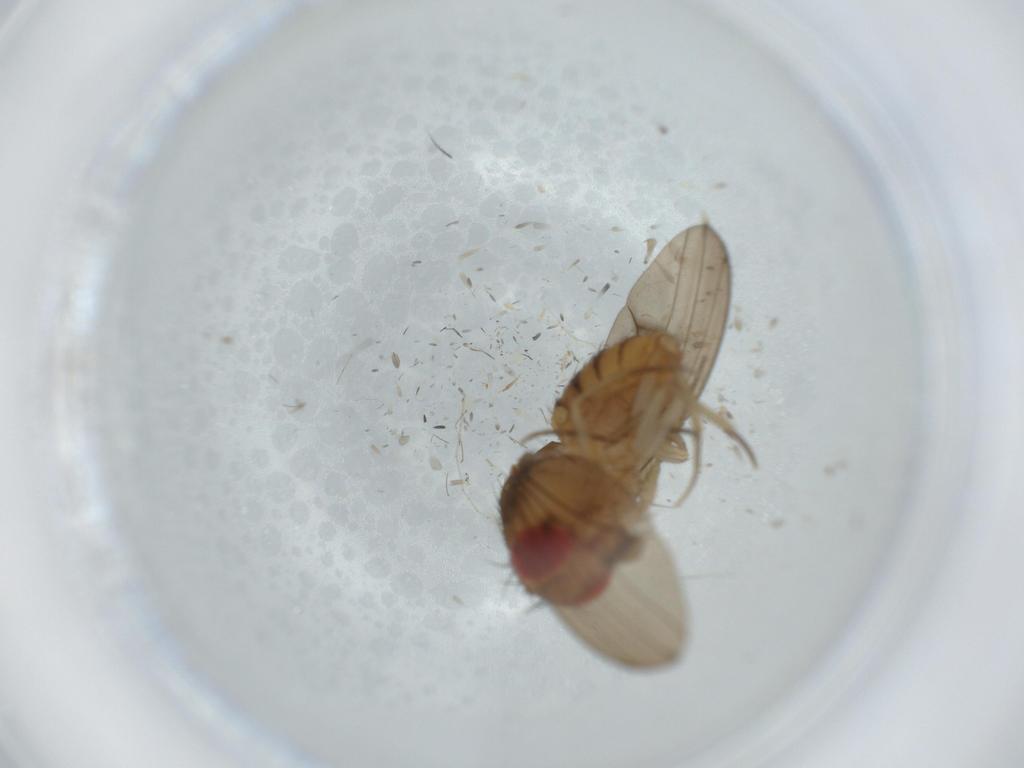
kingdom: Animalia
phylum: Arthropoda
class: Insecta
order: Diptera
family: Drosophilidae
